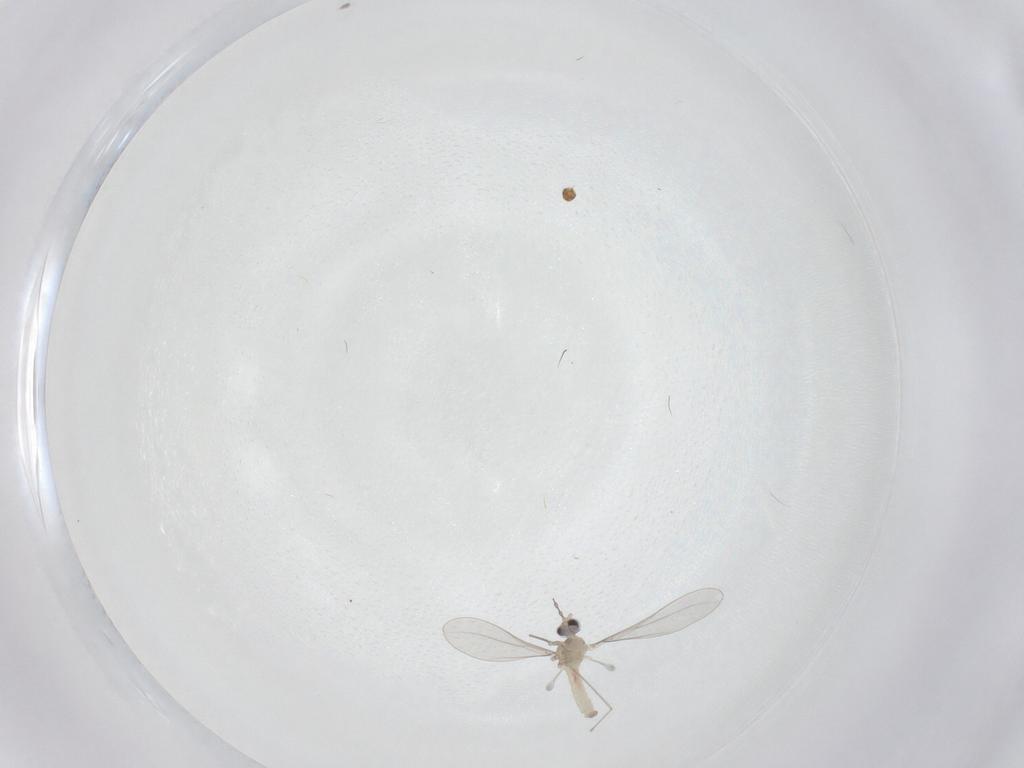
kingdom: Animalia
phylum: Arthropoda
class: Insecta
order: Diptera
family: Cecidomyiidae
